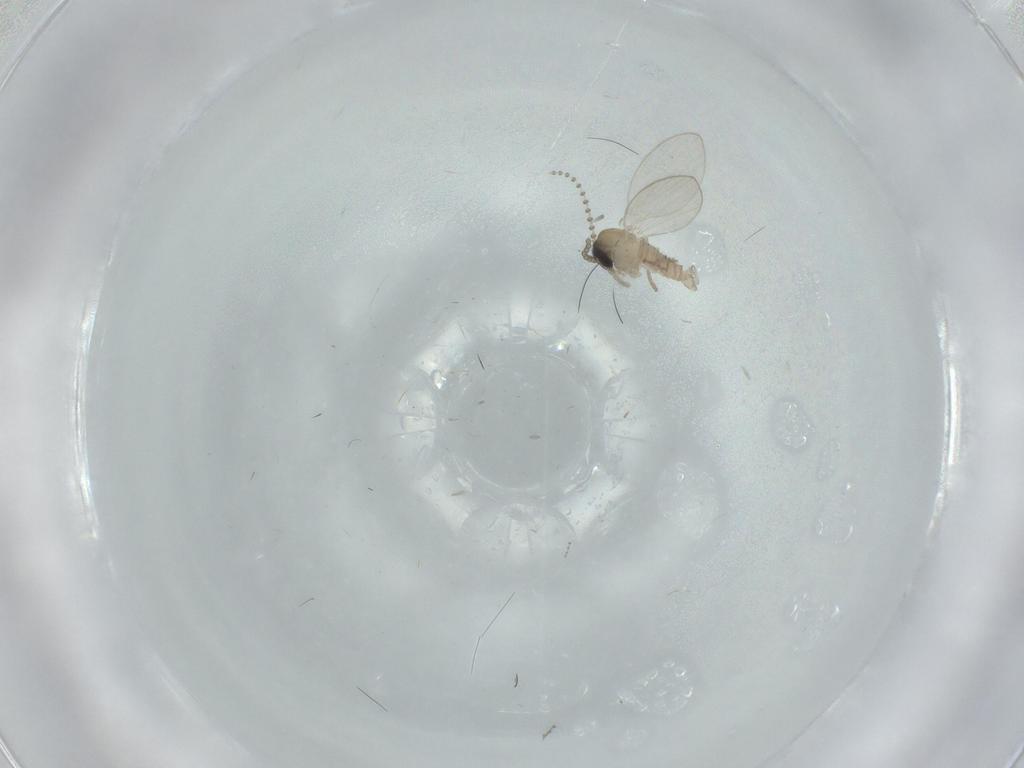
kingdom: Animalia
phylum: Arthropoda
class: Insecta
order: Diptera
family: Psychodidae
